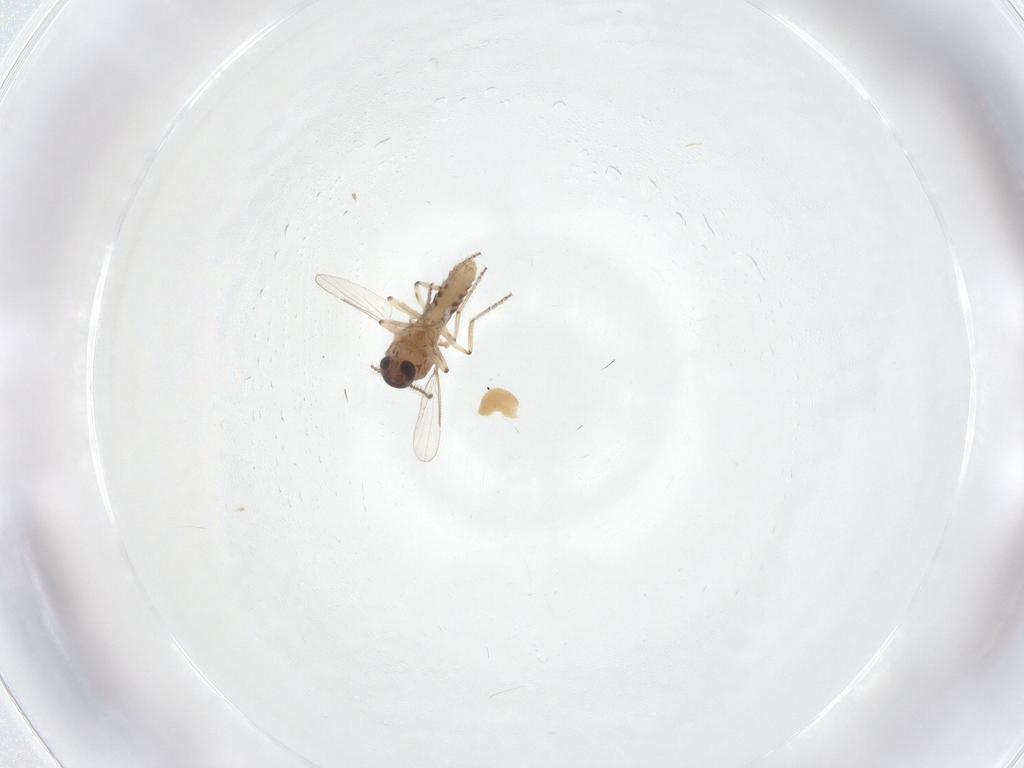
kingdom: Animalia
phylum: Arthropoda
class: Insecta
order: Diptera
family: Ceratopogonidae
